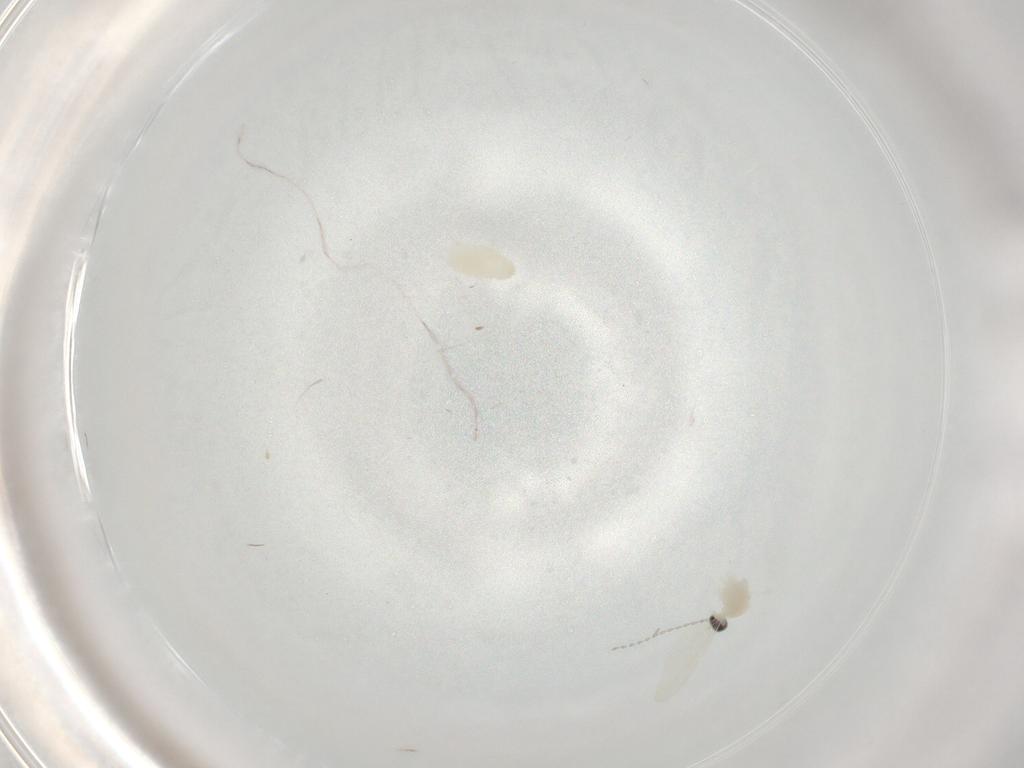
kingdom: Animalia
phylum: Arthropoda
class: Insecta
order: Diptera
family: Cecidomyiidae
